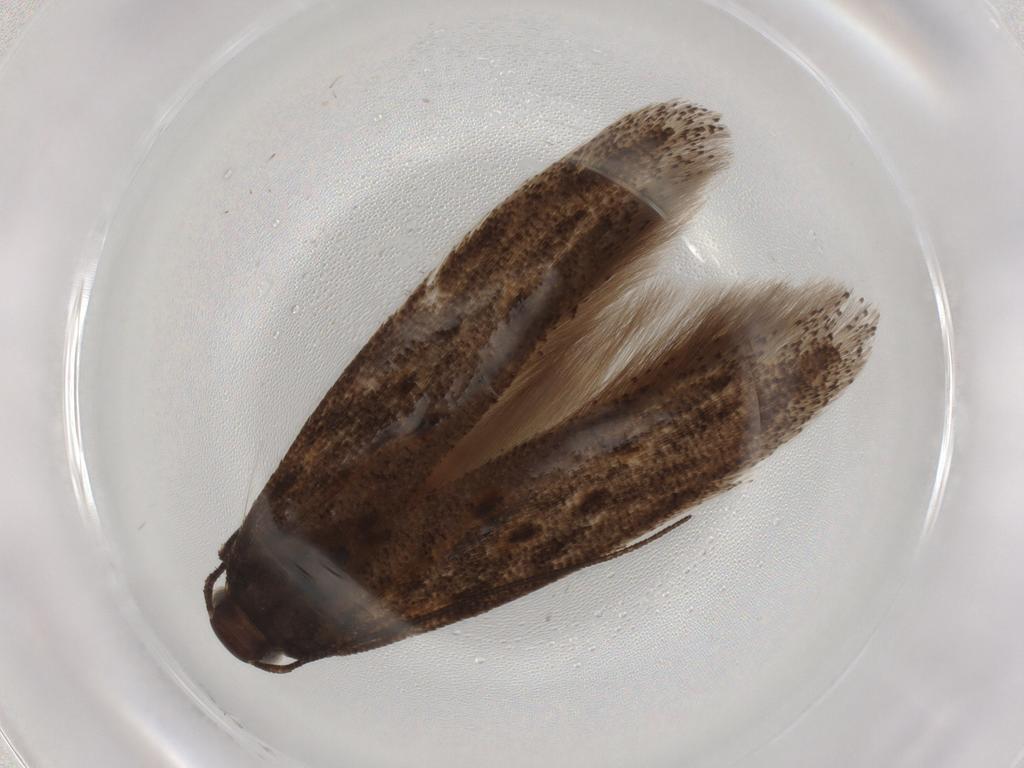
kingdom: Animalia
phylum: Arthropoda
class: Insecta
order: Lepidoptera
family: Gelechiidae
